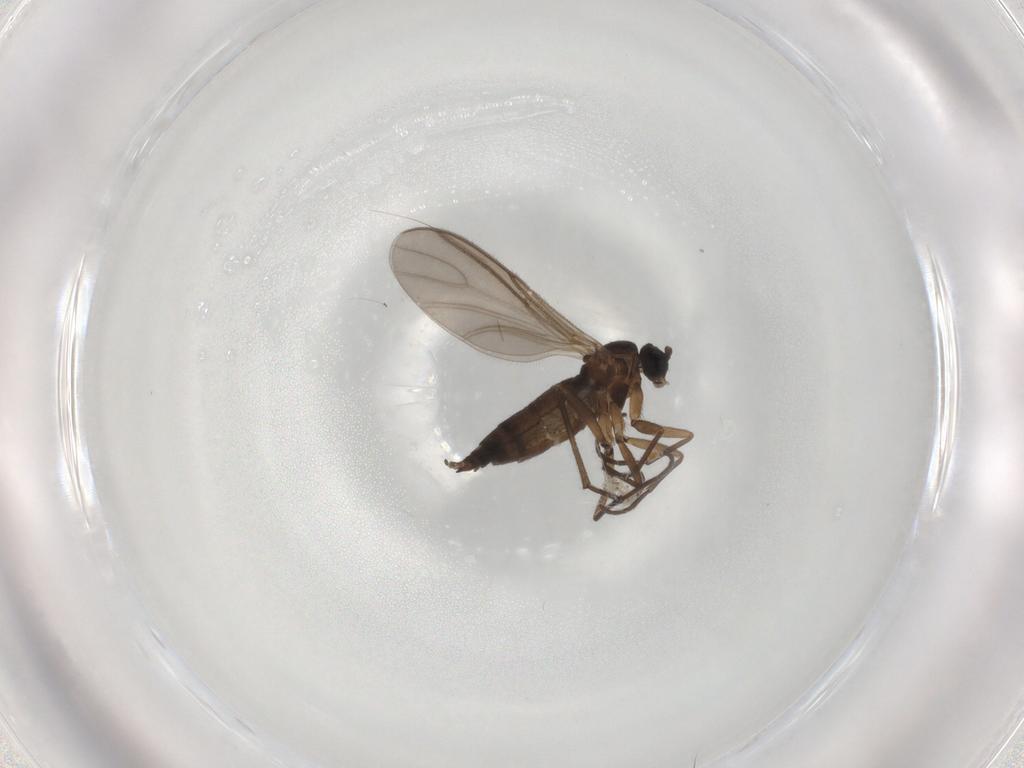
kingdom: Animalia
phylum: Arthropoda
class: Insecta
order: Diptera
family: Sciaridae
